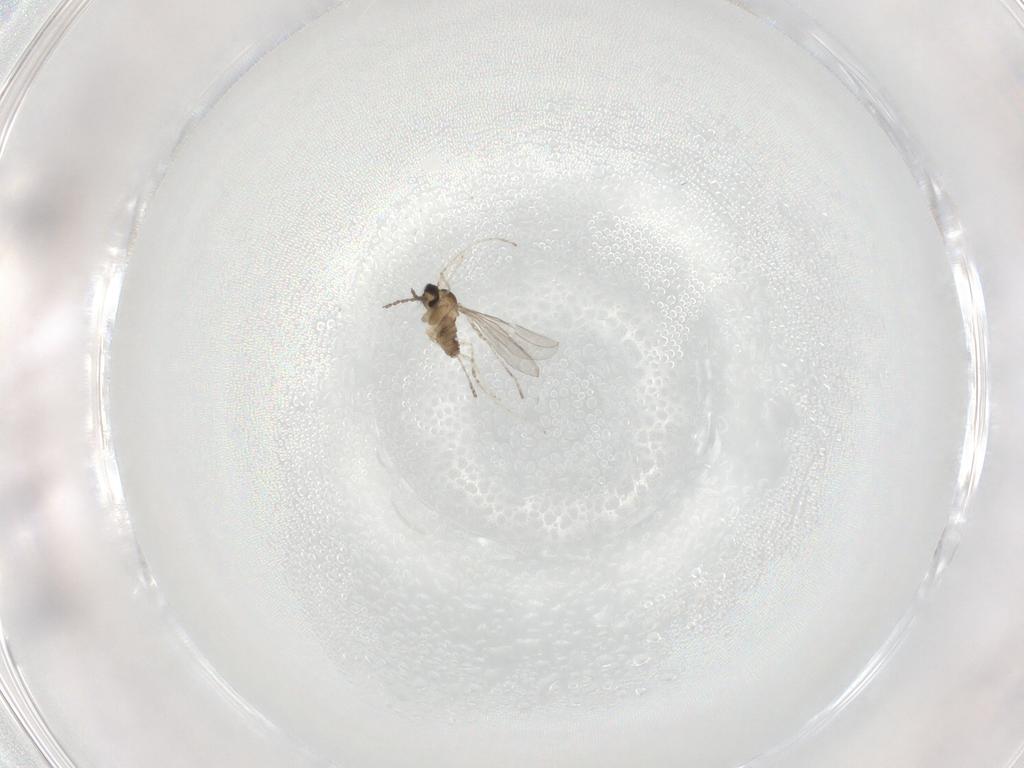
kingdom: Animalia
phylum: Arthropoda
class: Insecta
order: Diptera
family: Cecidomyiidae
